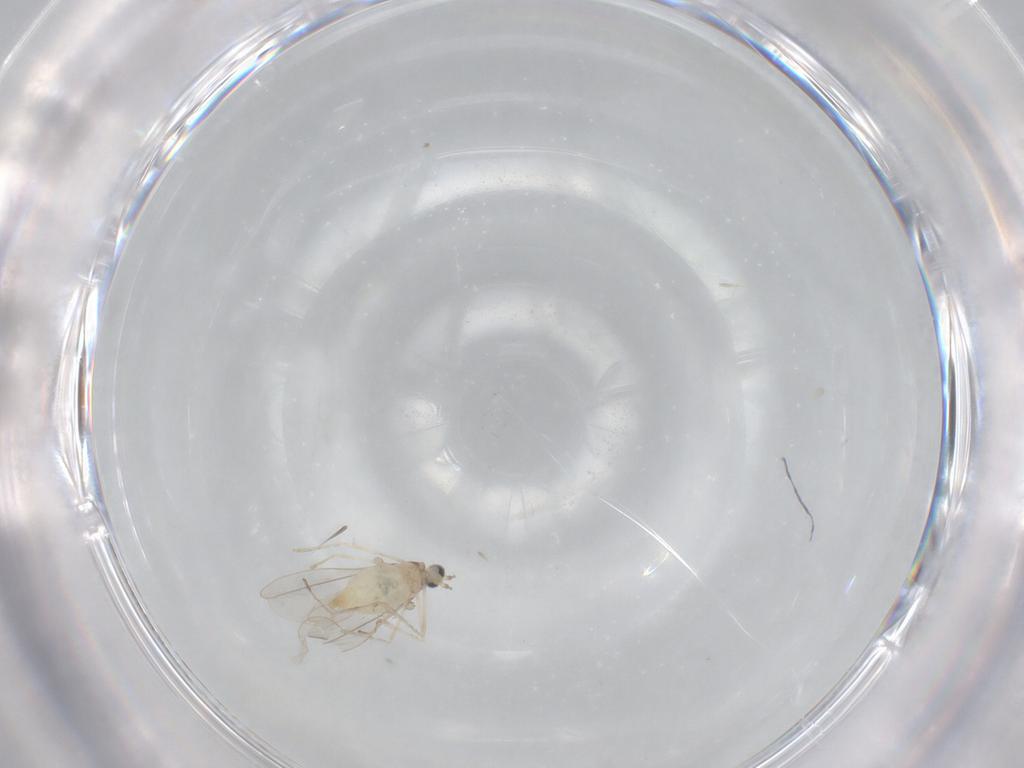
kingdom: Animalia
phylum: Arthropoda
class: Insecta
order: Diptera
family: Cecidomyiidae
